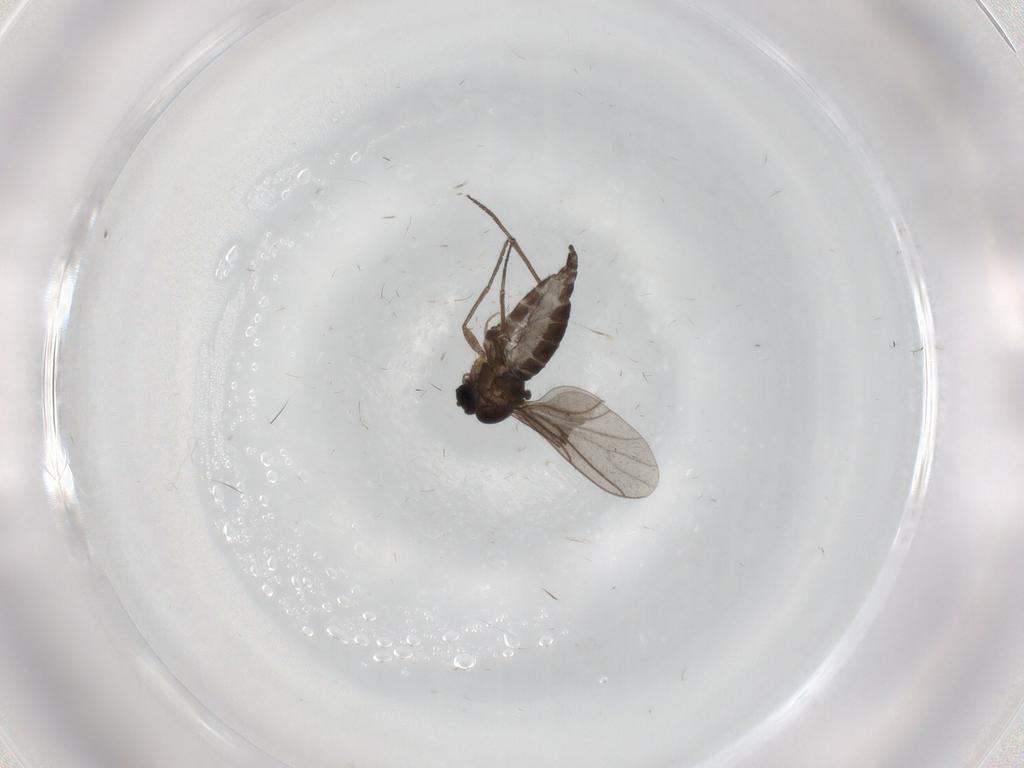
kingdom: Animalia
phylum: Arthropoda
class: Insecta
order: Diptera
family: Sciaridae
